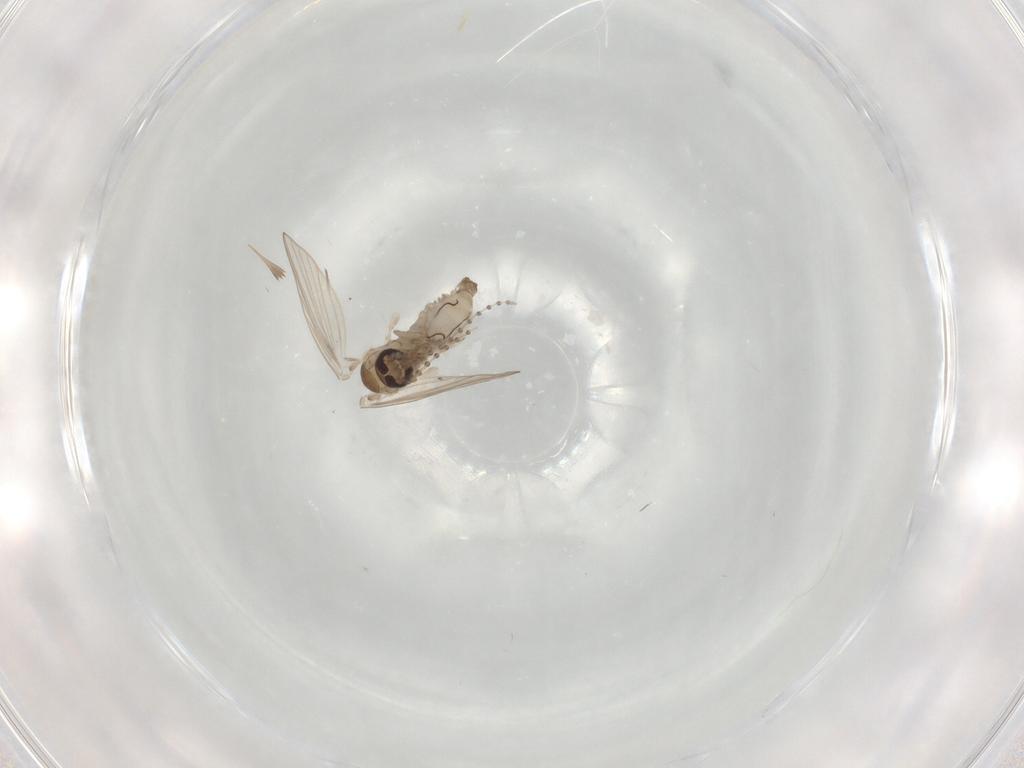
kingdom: Animalia
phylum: Arthropoda
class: Insecta
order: Diptera
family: Psychodidae
